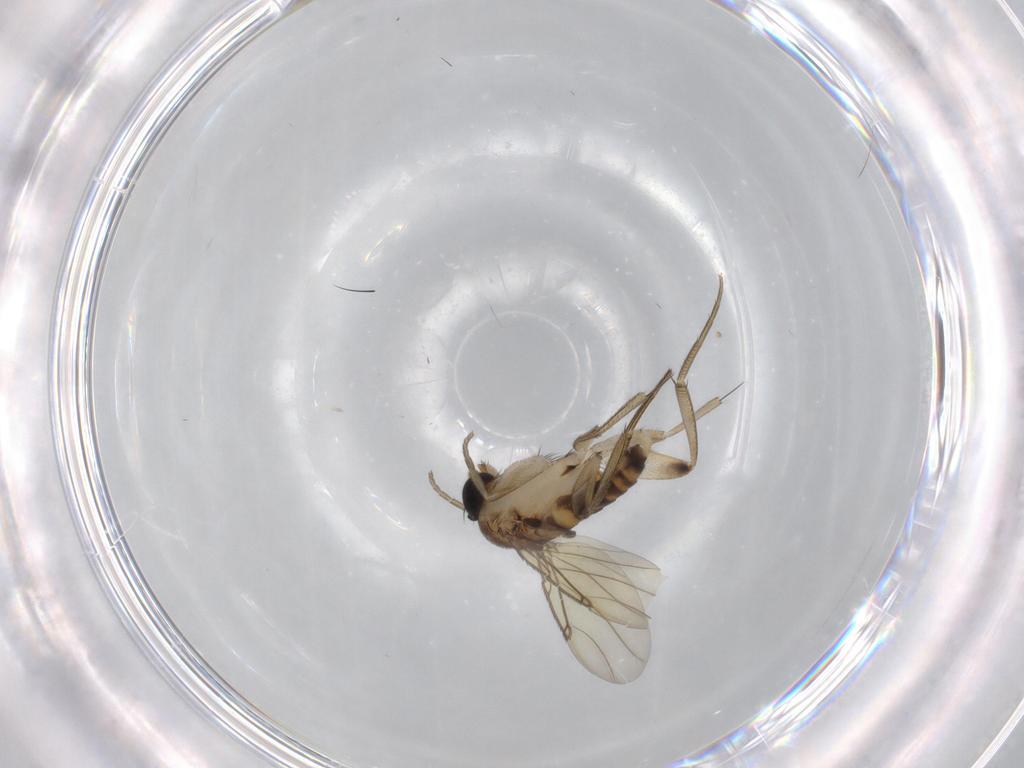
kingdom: Animalia
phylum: Arthropoda
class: Insecta
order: Diptera
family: Phoridae
